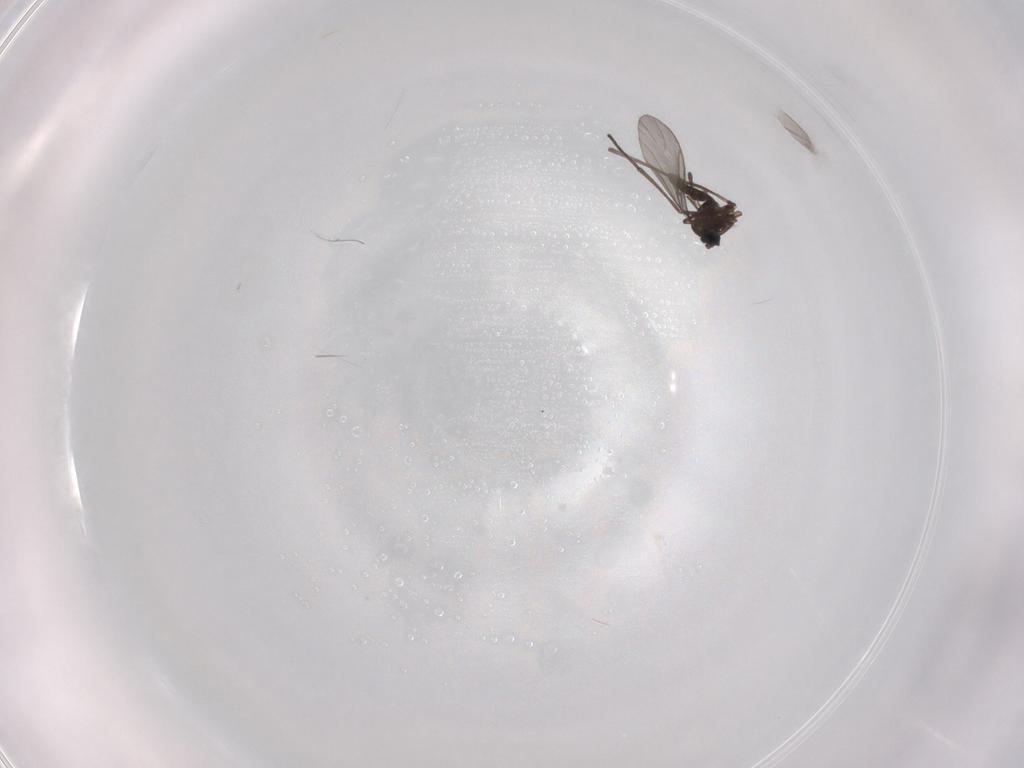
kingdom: Animalia
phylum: Arthropoda
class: Insecta
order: Diptera
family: Sciaridae
